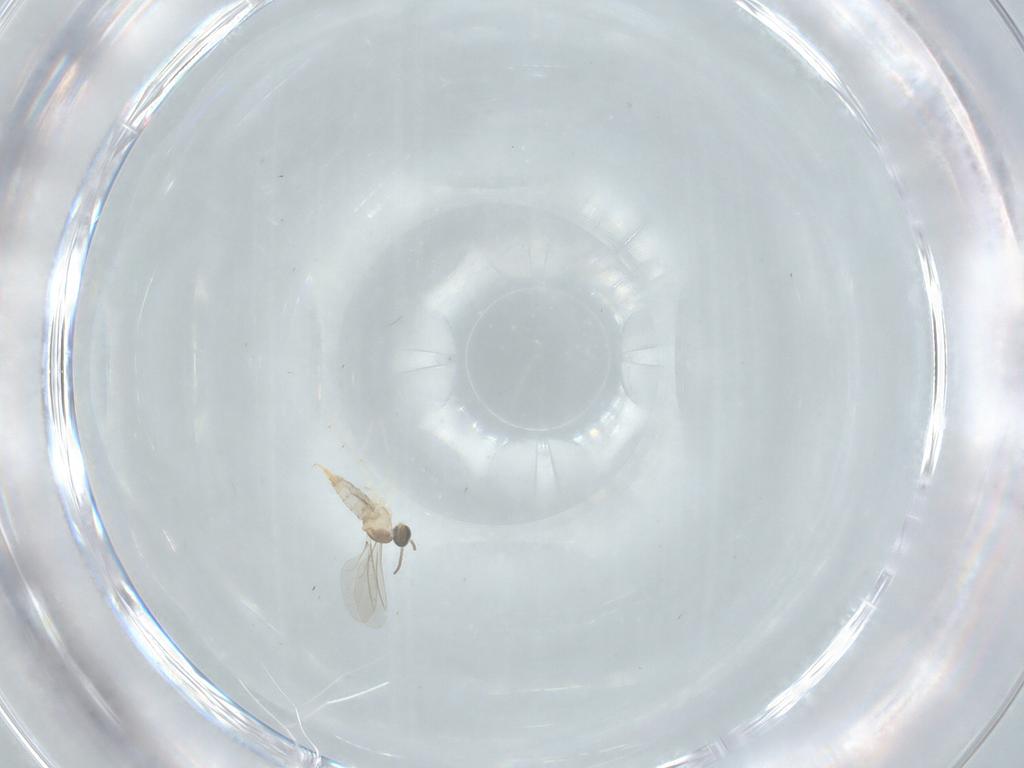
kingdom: Animalia
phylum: Arthropoda
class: Insecta
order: Diptera
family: Cecidomyiidae
